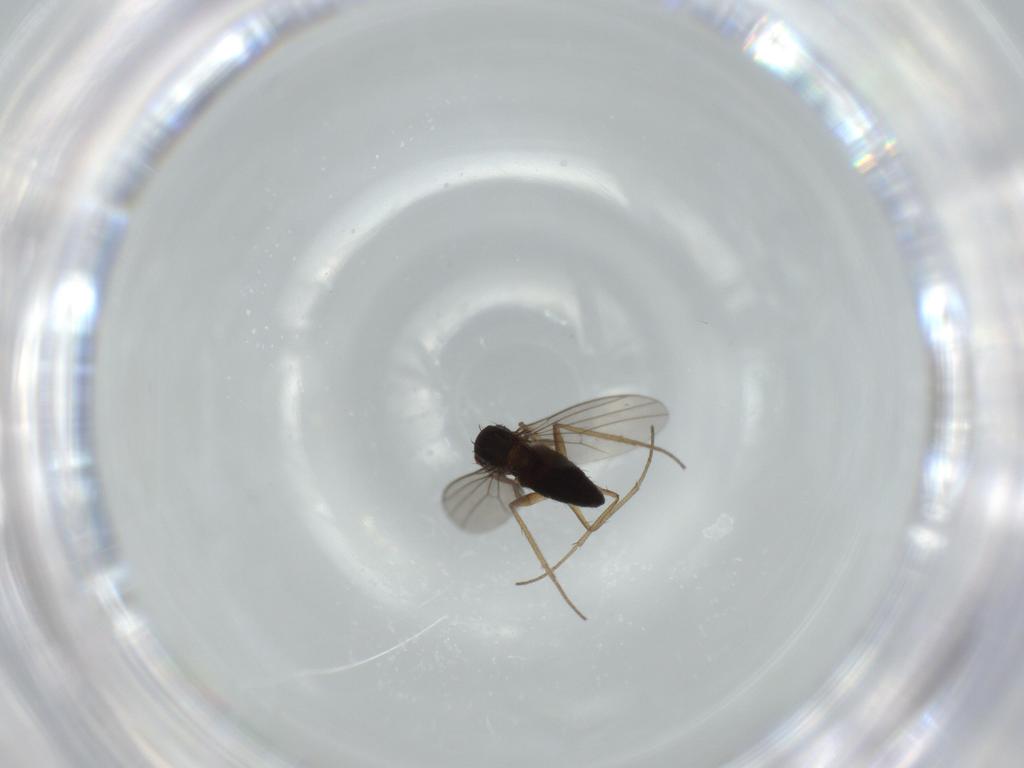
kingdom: Animalia
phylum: Arthropoda
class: Insecta
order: Diptera
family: Dolichopodidae
